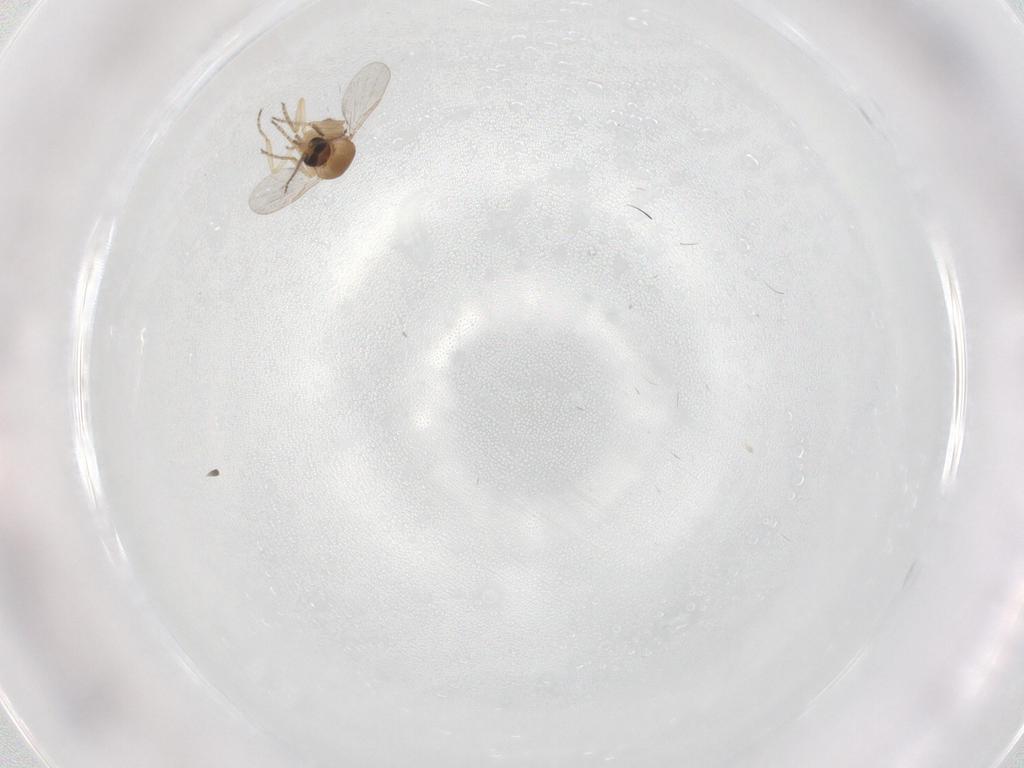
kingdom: Animalia
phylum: Arthropoda
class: Insecta
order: Diptera
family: Ceratopogonidae
